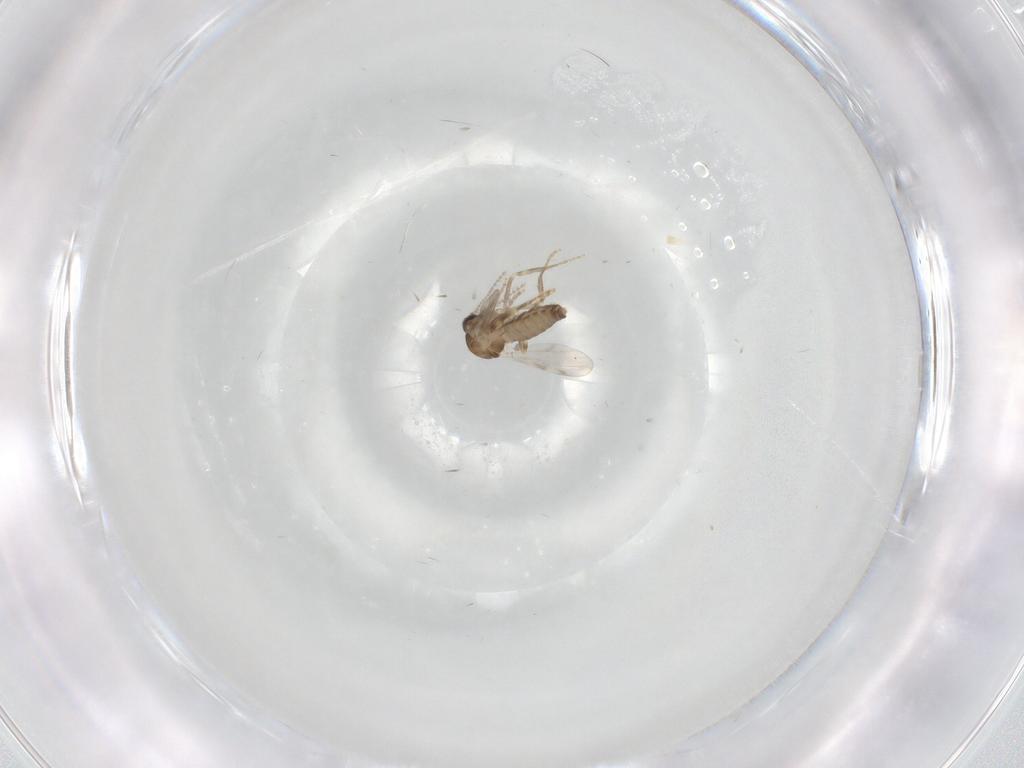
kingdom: Animalia
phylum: Arthropoda
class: Insecta
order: Diptera
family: Ceratopogonidae
